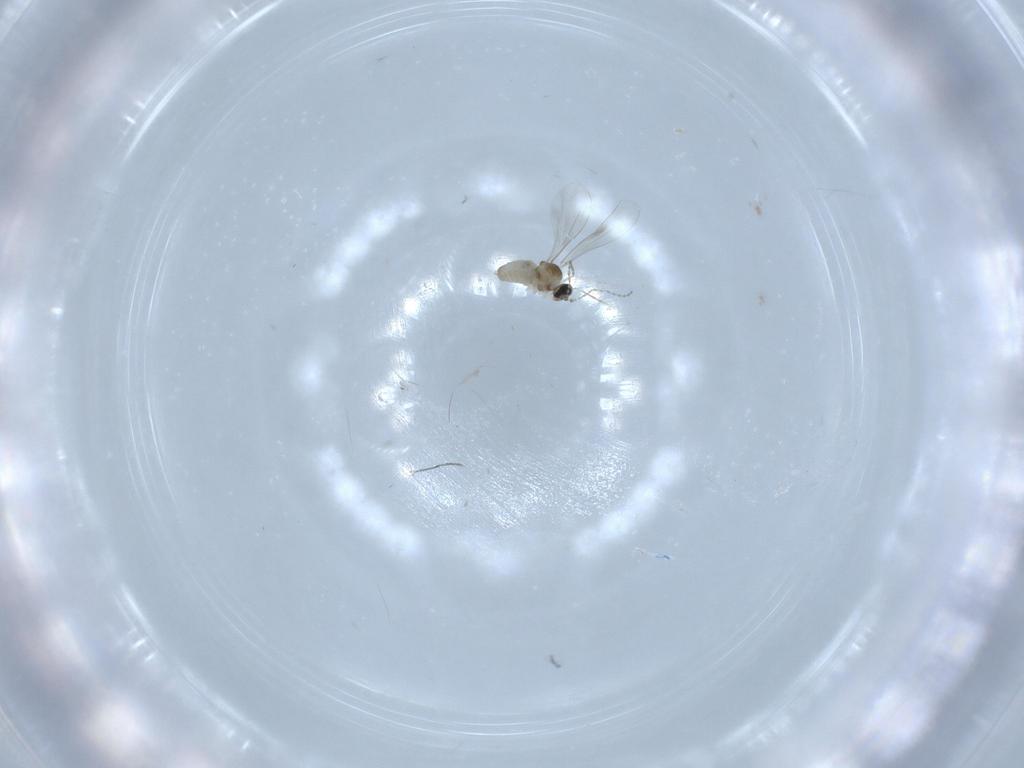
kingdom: Animalia
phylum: Arthropoda
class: Insecta
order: Diptera
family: Cecidomyiidae
